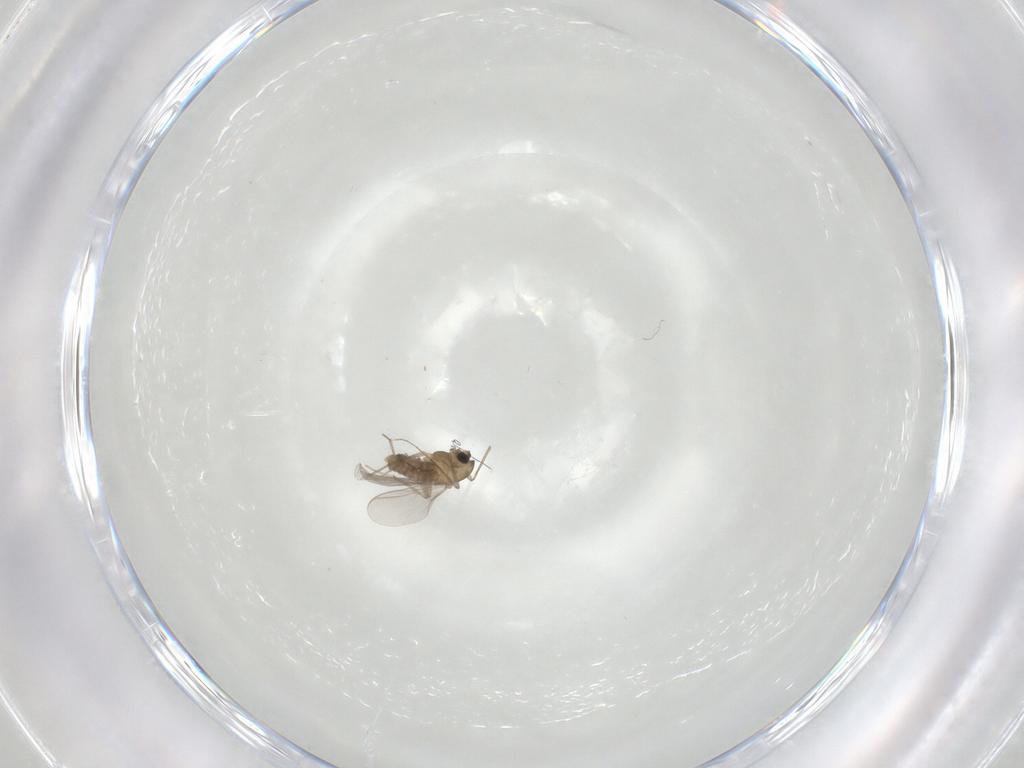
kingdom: Animalia
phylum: Arthropoda
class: Insecta
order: Diptera
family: Chironomidae
